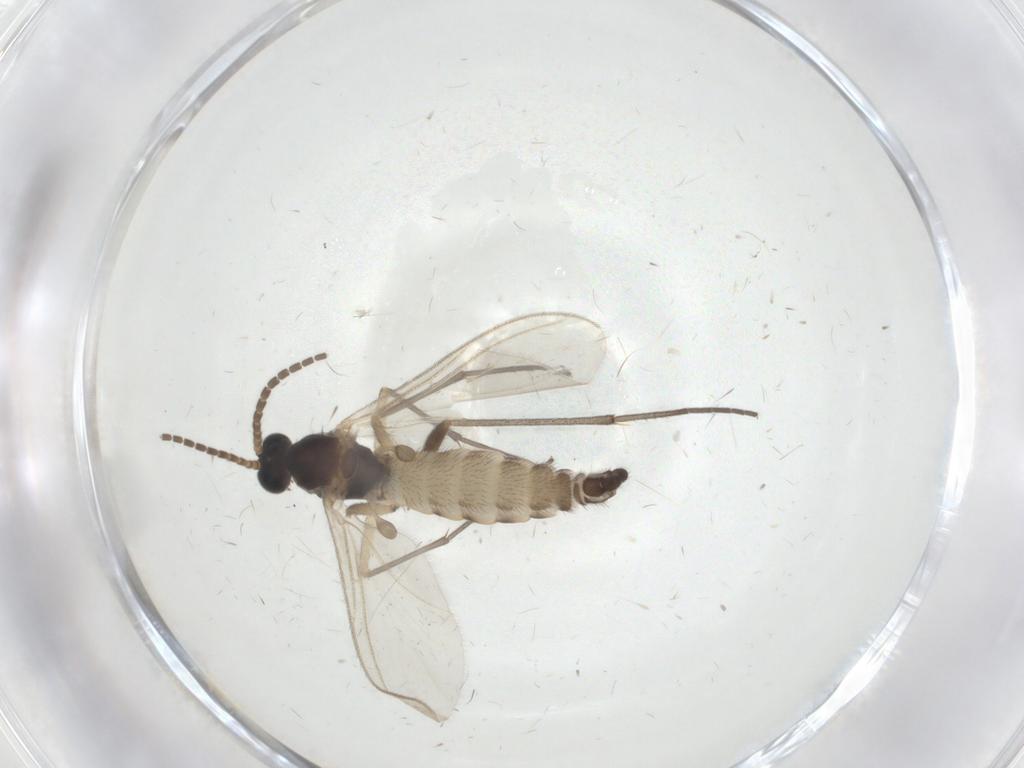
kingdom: Animalia
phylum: Arthropoda
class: Insecta
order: Diptera
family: Sciaridae
